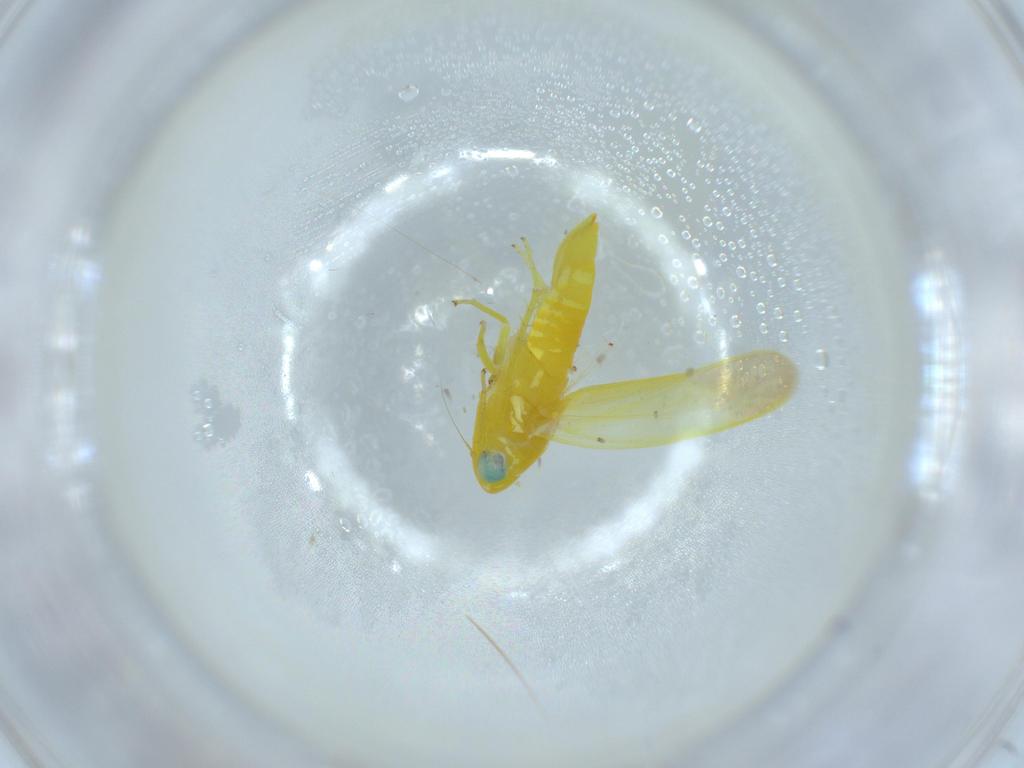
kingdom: Animalia
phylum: Arthropoda
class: Insecta
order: Hemiptera
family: Cicadellidae
